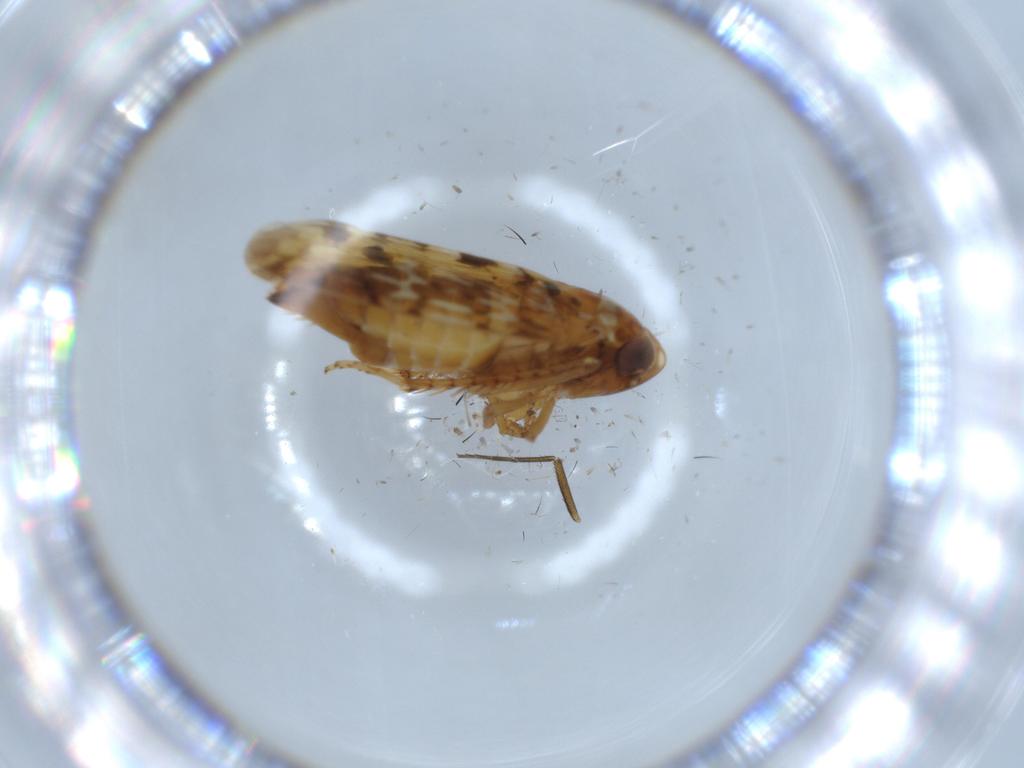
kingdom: Animalia
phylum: Arthropoda
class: Insecta
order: Hemiptera
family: Cicadellidae
